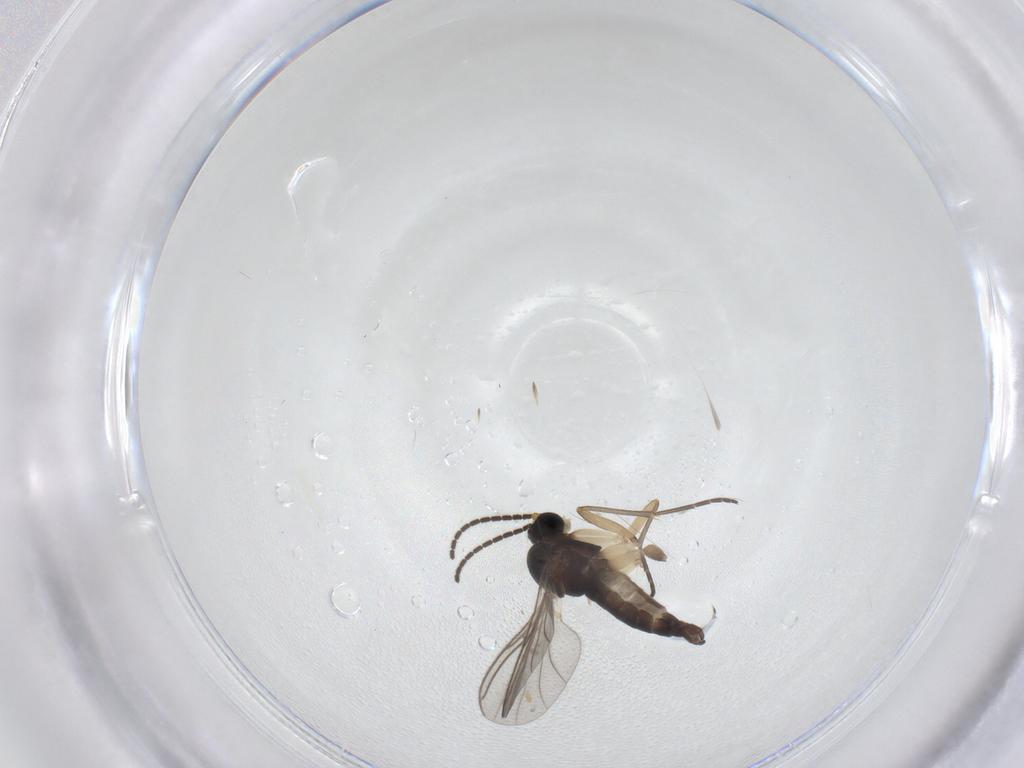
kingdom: Animalia
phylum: Arthropoda
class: Insecta
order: Diptera
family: Sciaridae
